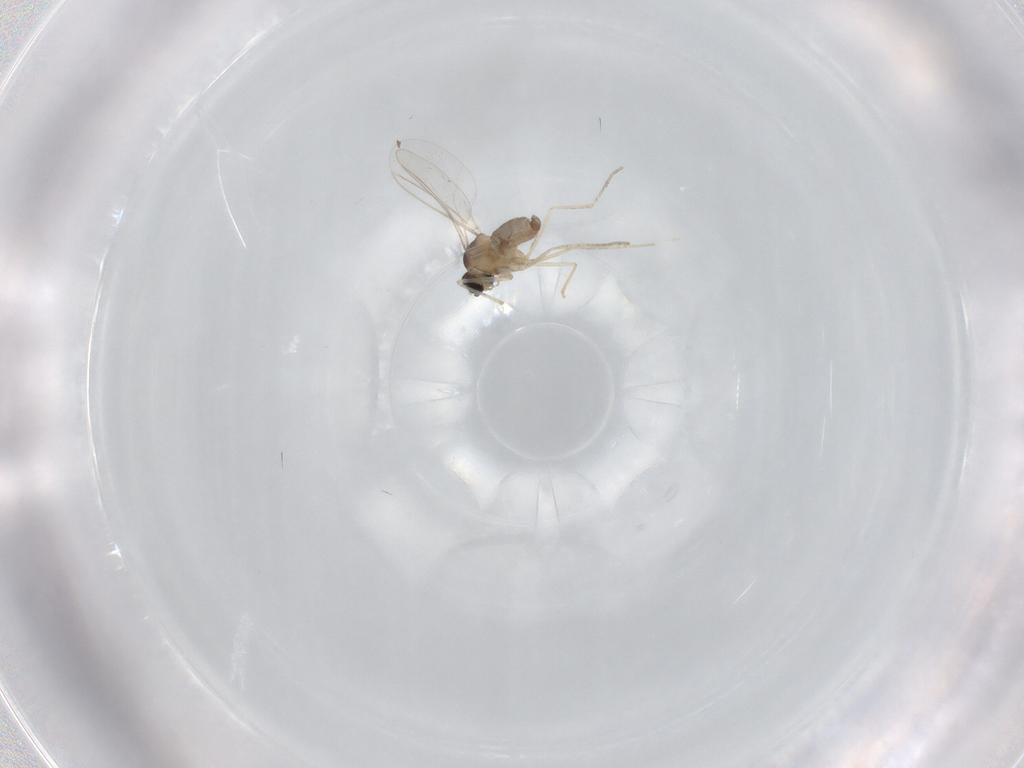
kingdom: Animalia
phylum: Arthropoda
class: Insecta
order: Diptera
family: Cecidomyiidae
